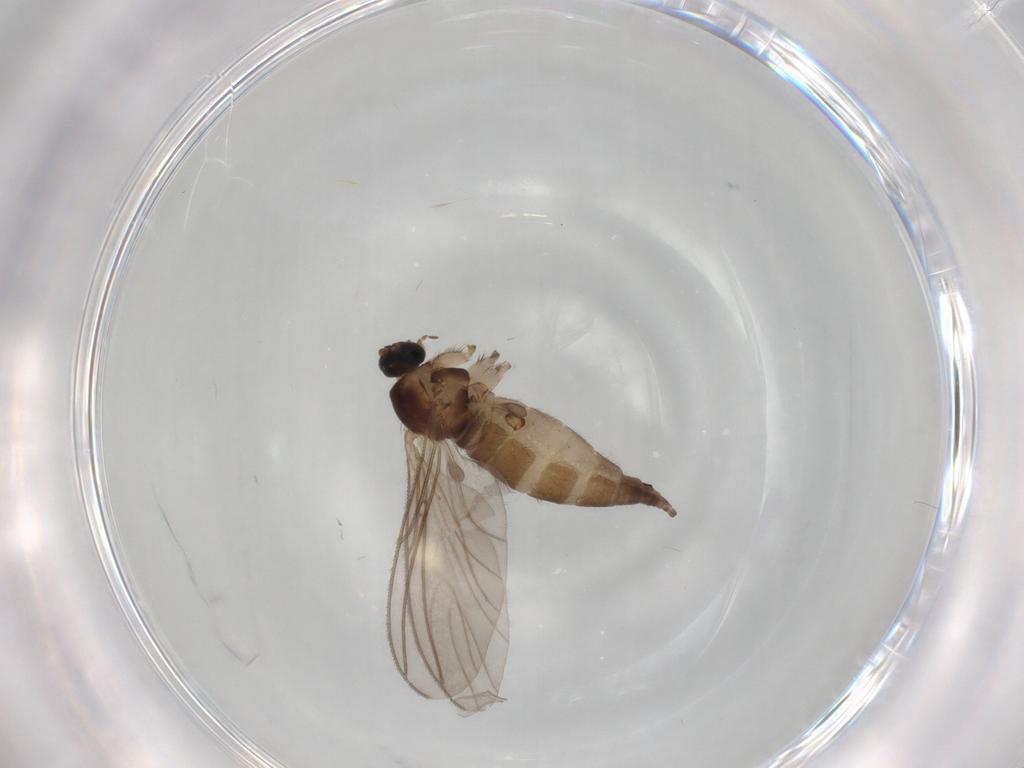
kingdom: Animalia
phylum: Arthropoda
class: Insecta
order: Diptera
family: Sciaridae
